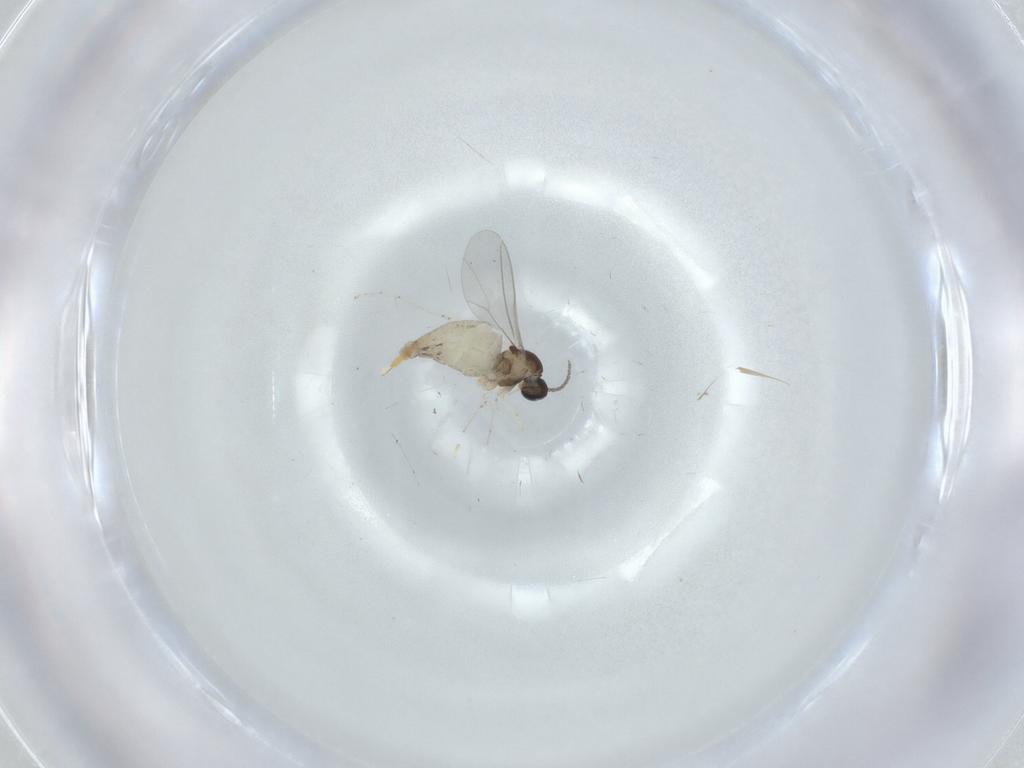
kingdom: Animalia
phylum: Arthropoda
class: Insecta
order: Diptera
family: Cecidomyiidae
